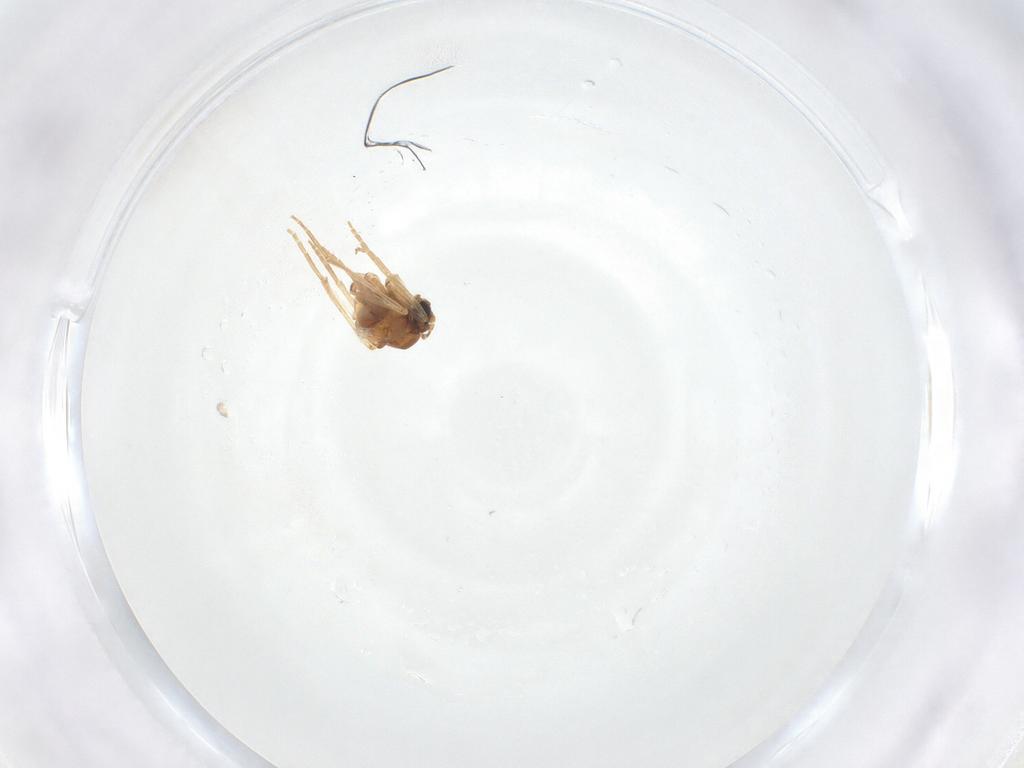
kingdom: Animalia
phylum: Arthropoda
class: Insecta
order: Diptera
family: Sciaridae
